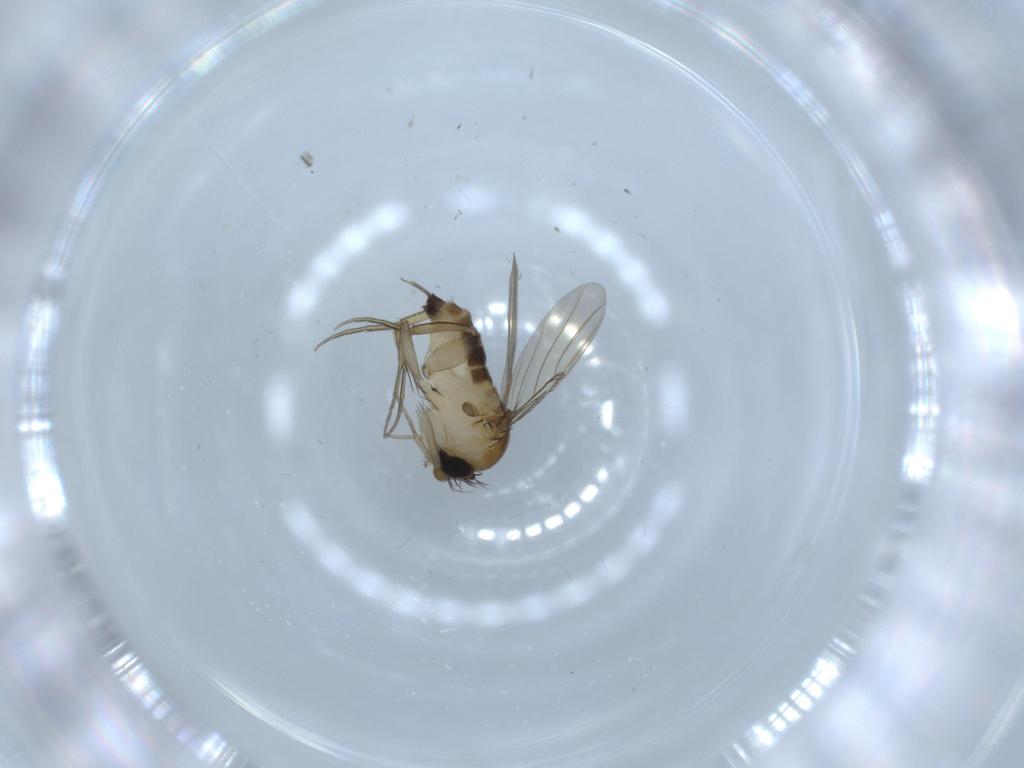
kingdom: Animalia
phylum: Arthropoda
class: Insecta
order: Diptera
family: Phoridae
